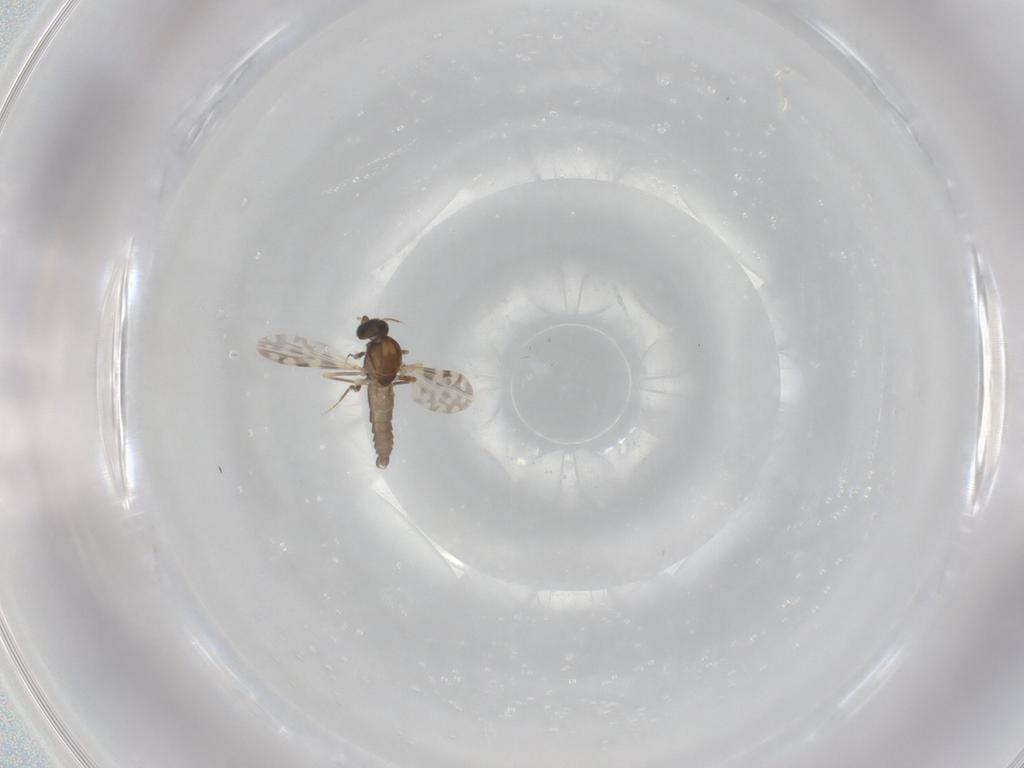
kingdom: Animalia
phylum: Arthropoda
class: Insecta
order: Diptera
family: Ceratopogonidae
